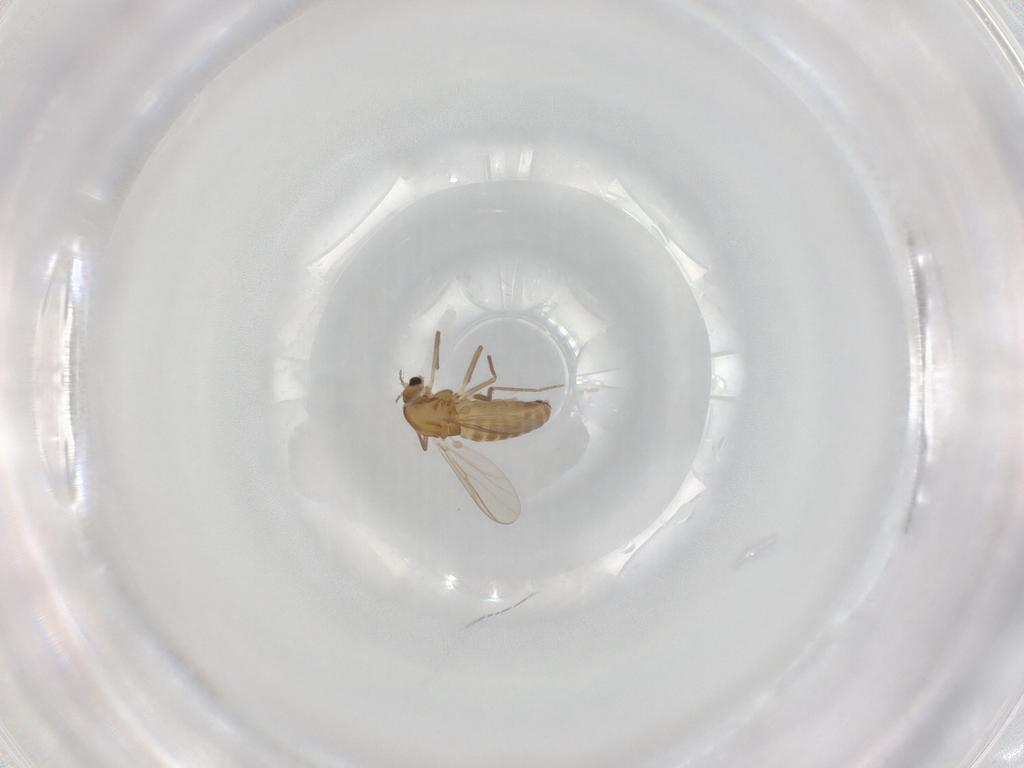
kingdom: Animalia
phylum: Arthropoda
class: Insecta
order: Diptera
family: Chironomidae
